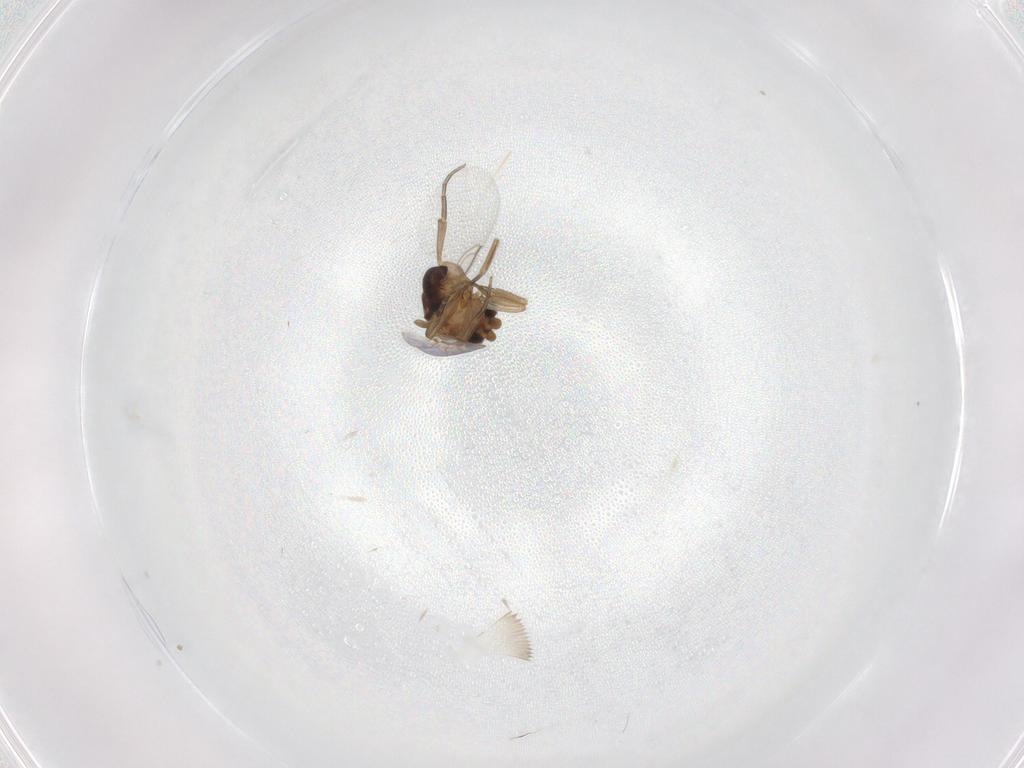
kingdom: Animalia
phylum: Arthropoda
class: Insecta
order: Diptera
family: Phoridae
